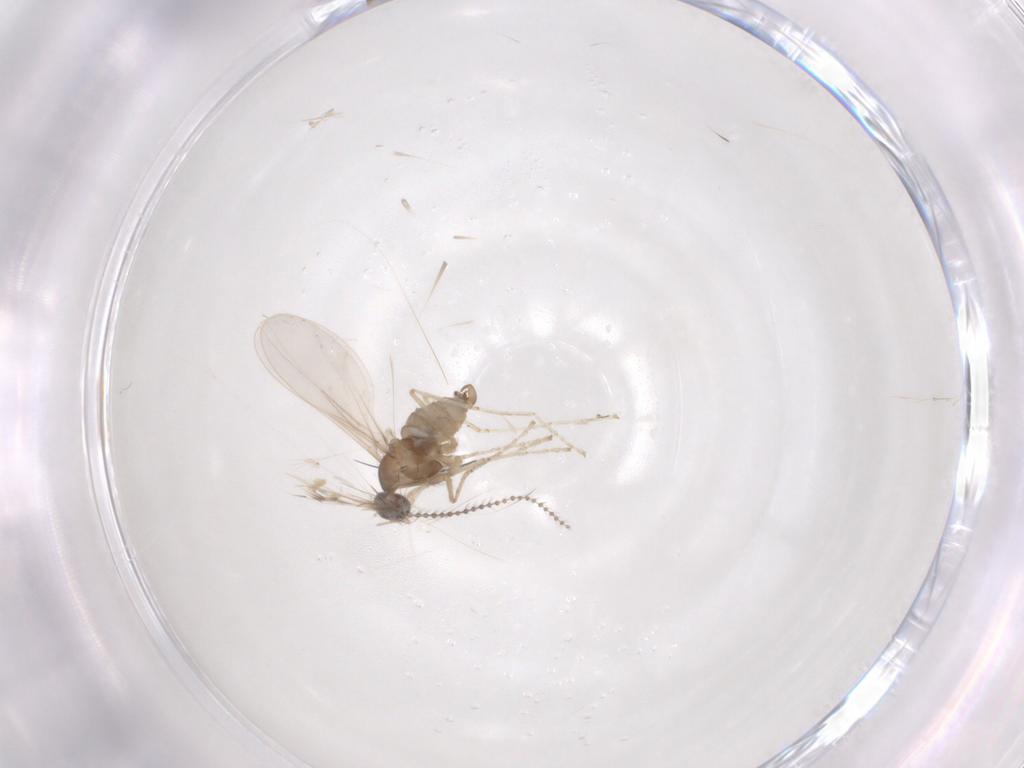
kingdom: Animalia
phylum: Arthropoda
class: Insecta
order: Diptera
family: Cecidomyiidae
